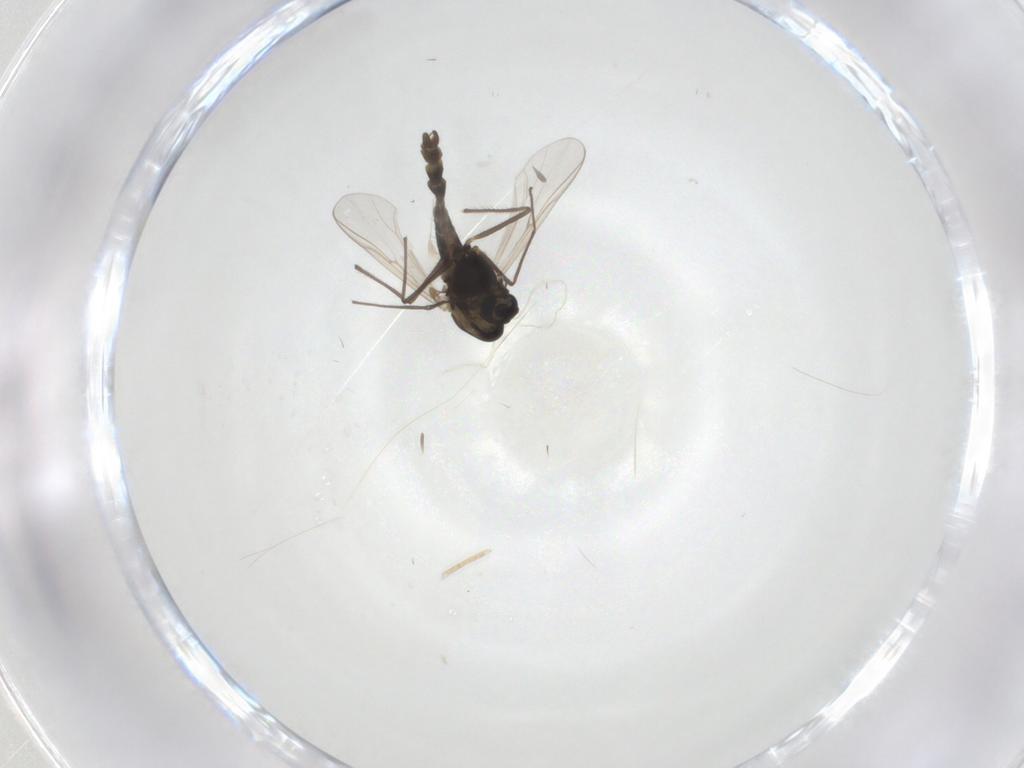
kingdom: Animalia
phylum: Arthropoda
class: Insecta
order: Diptera
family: Chironomidae
